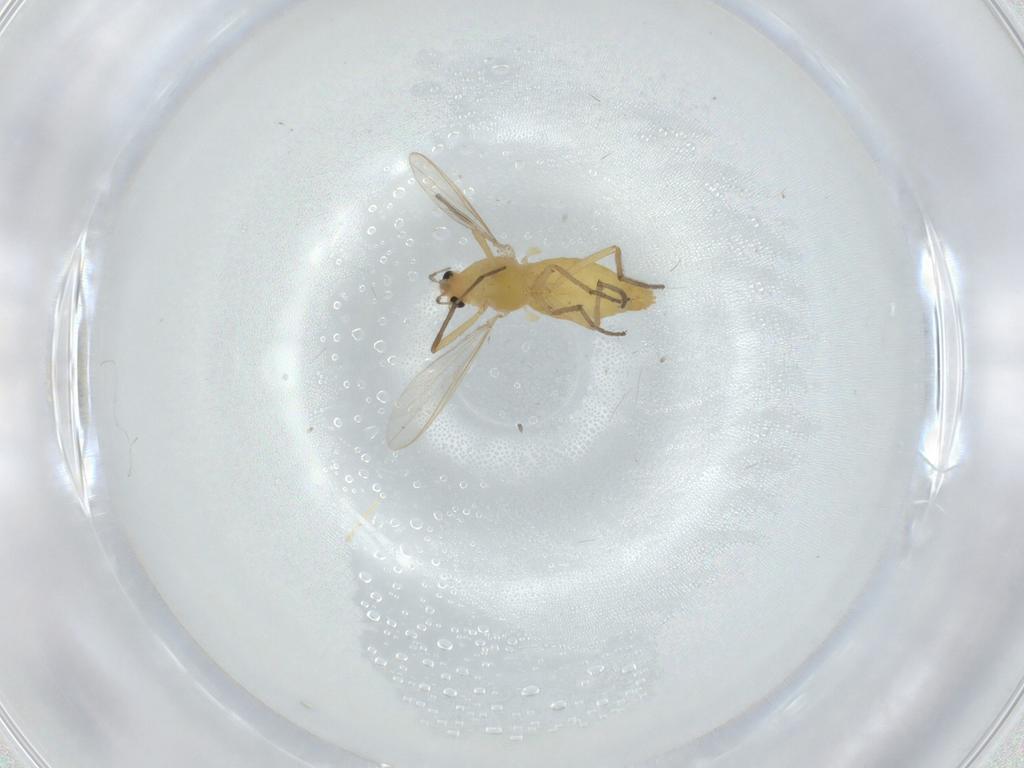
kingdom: Animalia
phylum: Arthropoda
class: Insecta
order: Diptera
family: Chironomidae
